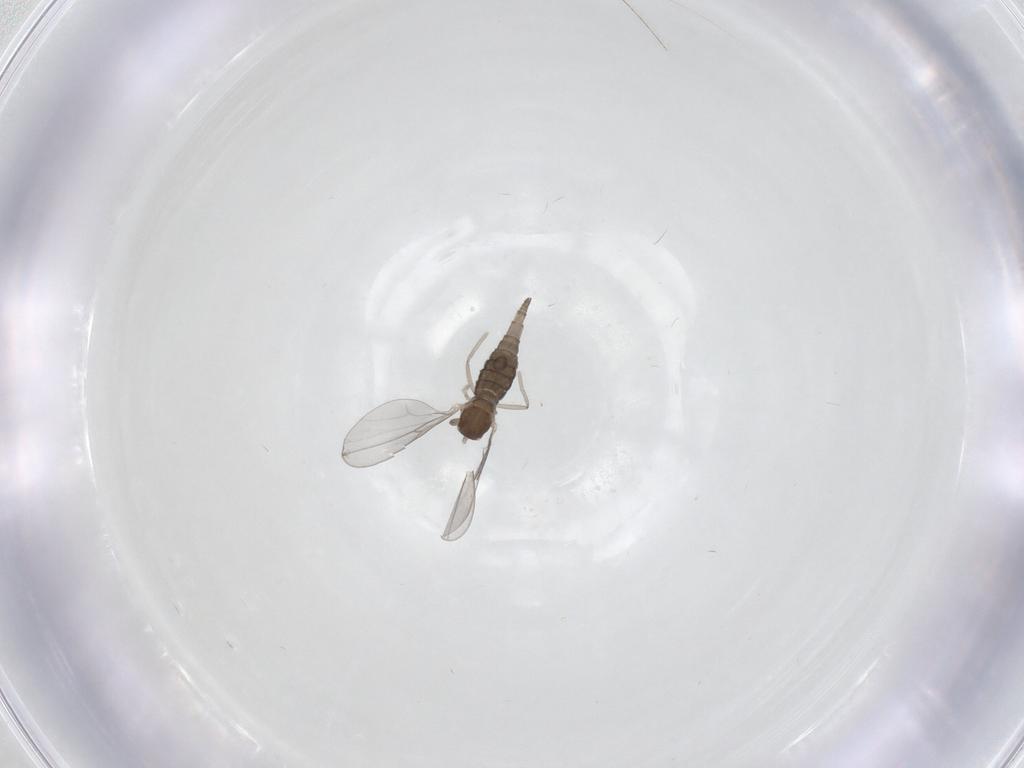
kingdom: Animalia
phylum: Arthropoda
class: Insecta
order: Diptera
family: Cecidomyiidae
